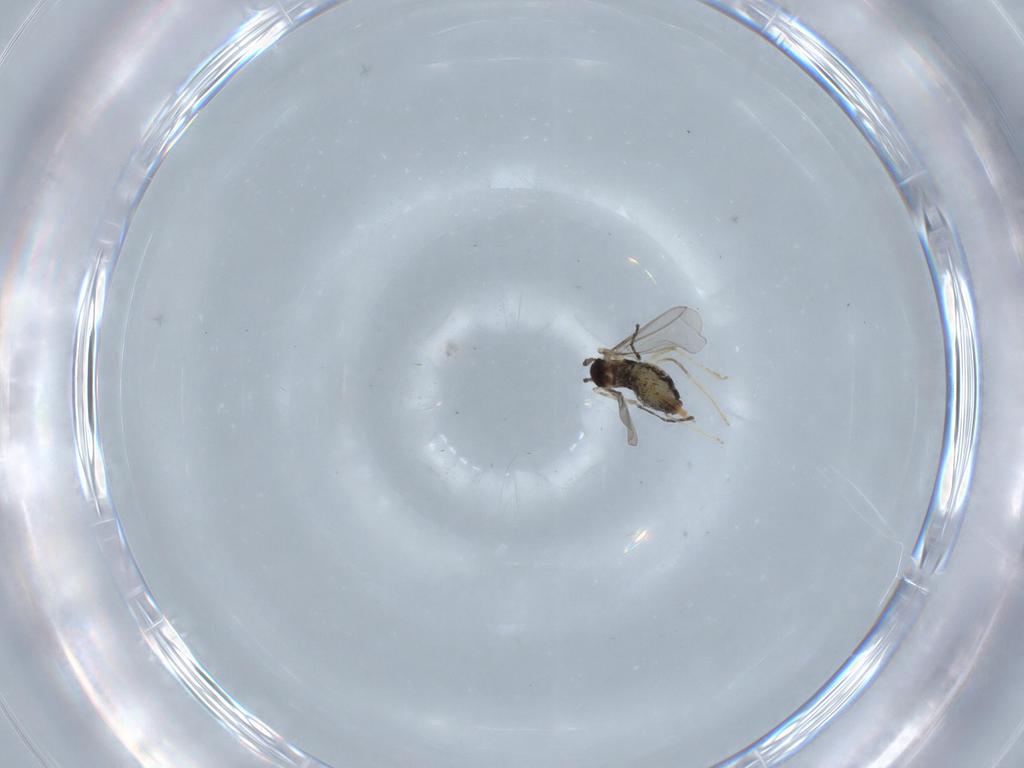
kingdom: Animalia
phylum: Arthropoda
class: Insecta
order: Diptera
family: Cecidomyiidae
